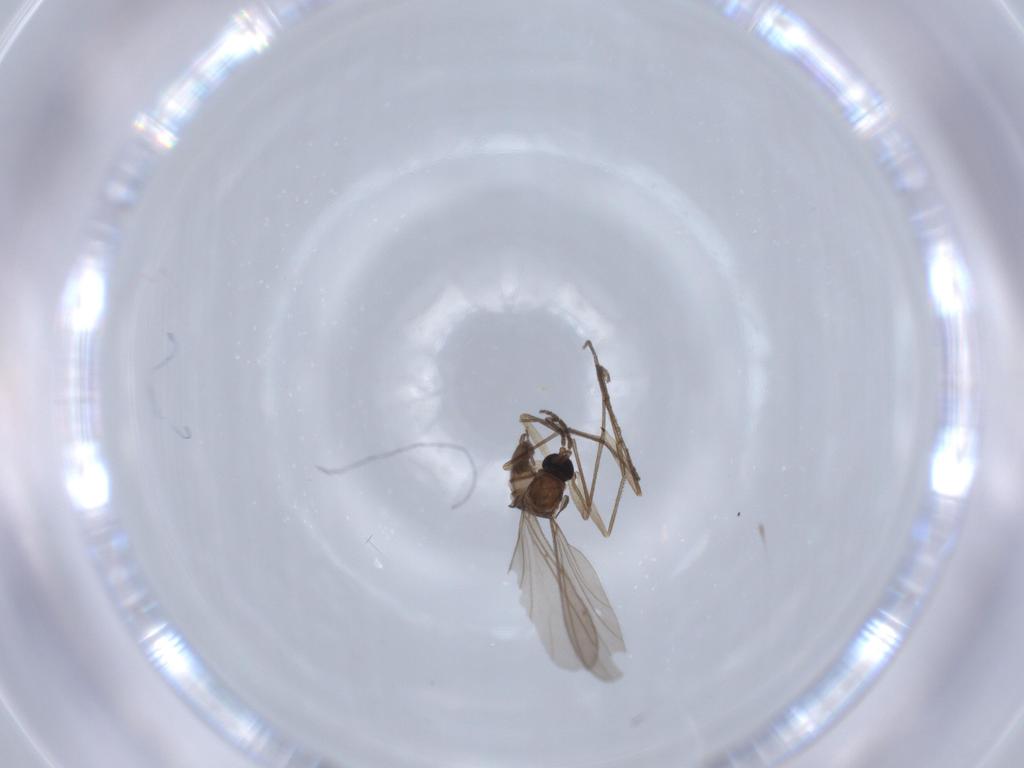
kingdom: Animalia
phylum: Arthropoda
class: Insecta
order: Diptera
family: Sciaridae
